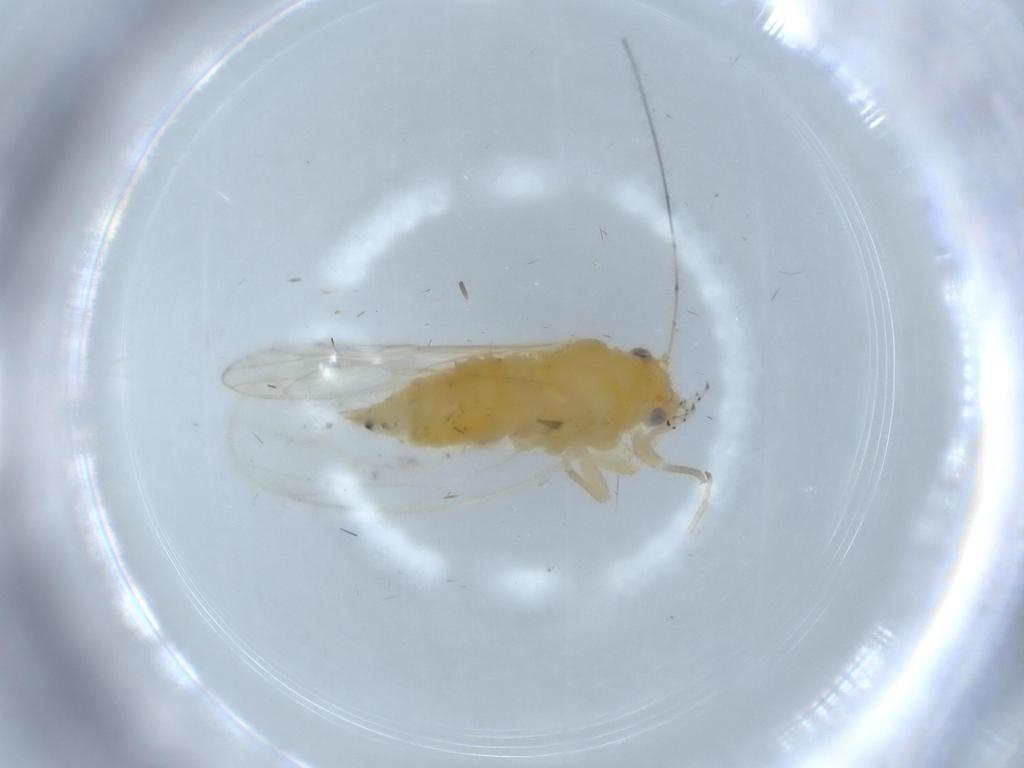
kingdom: Animalia
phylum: Arthropoda
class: Insecta
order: Hemiptera
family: Psyllidae
